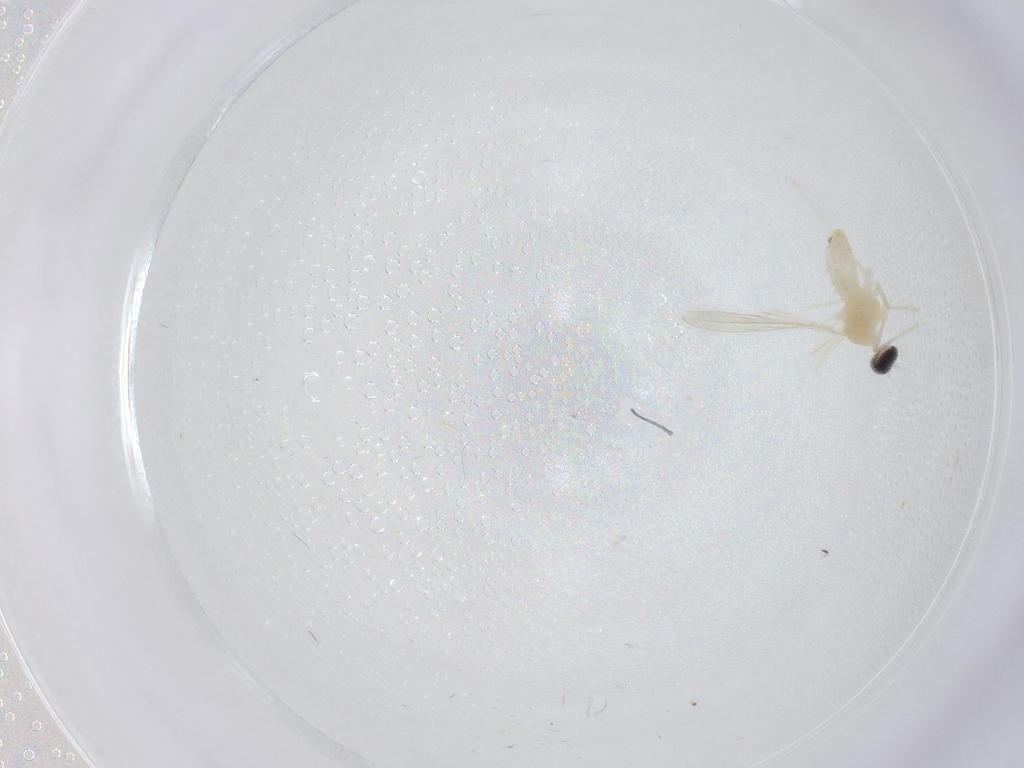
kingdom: Animalia
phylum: Arthropoda
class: Insecta
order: Diptera
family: Cecidomyiidae
